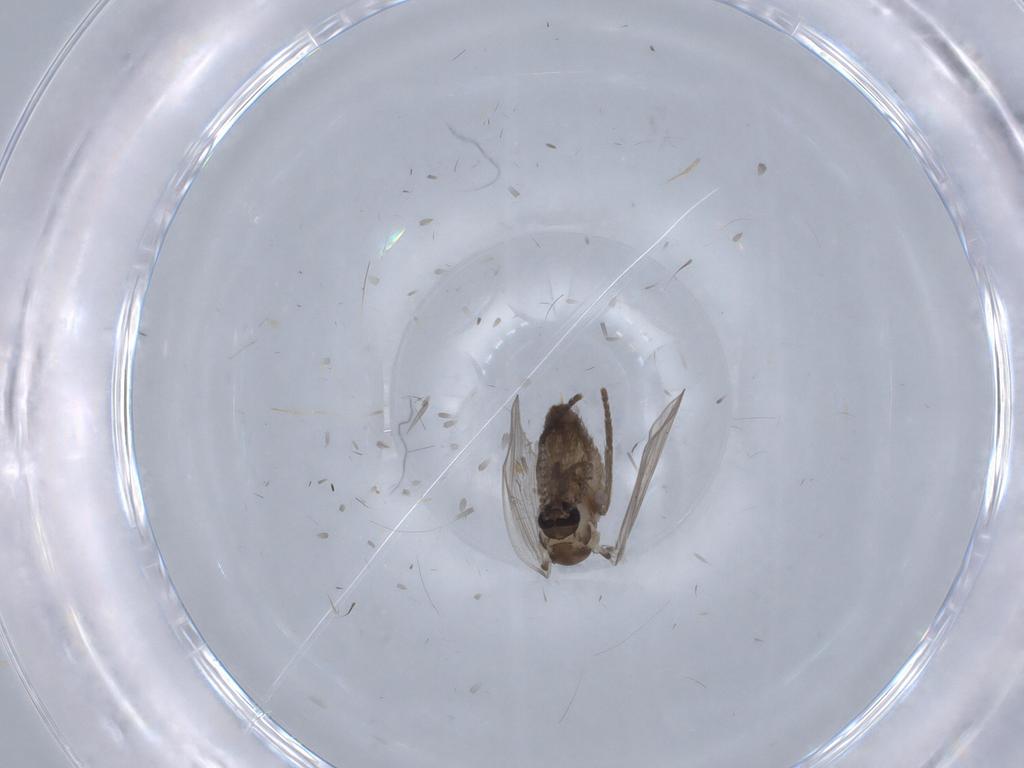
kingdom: Animalia
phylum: Arthropoda
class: Insecta
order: Diptera
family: Psychodidae
